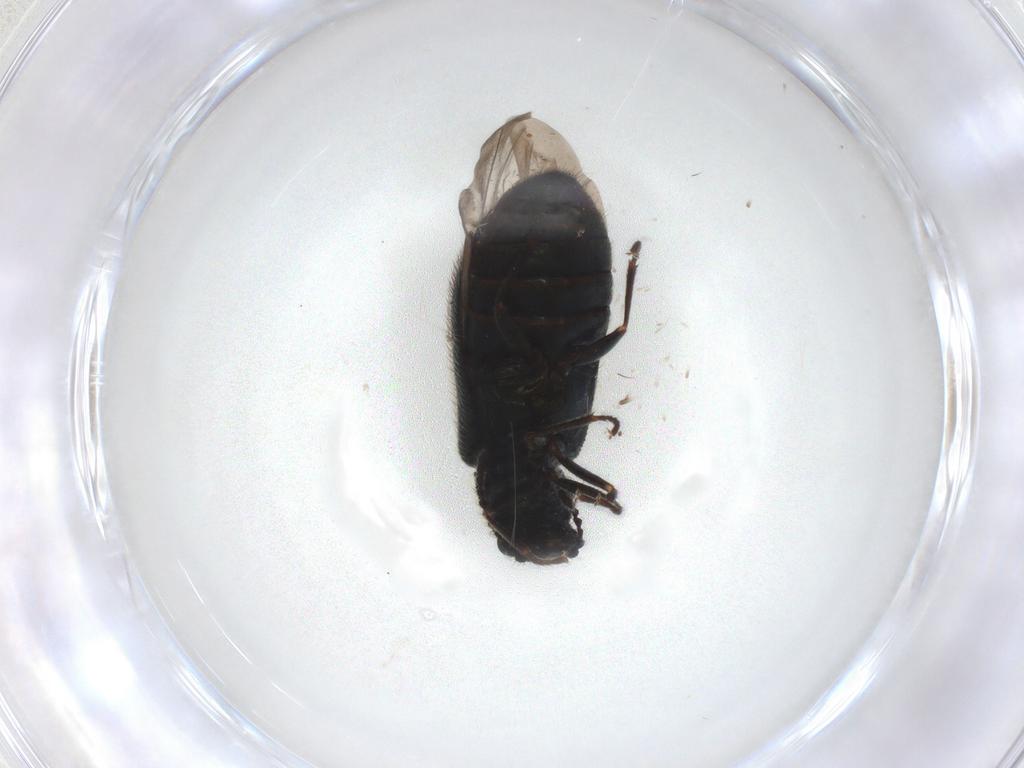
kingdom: Animalia
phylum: Arthropoda
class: Insecta
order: Coleoptera
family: Melyridae
